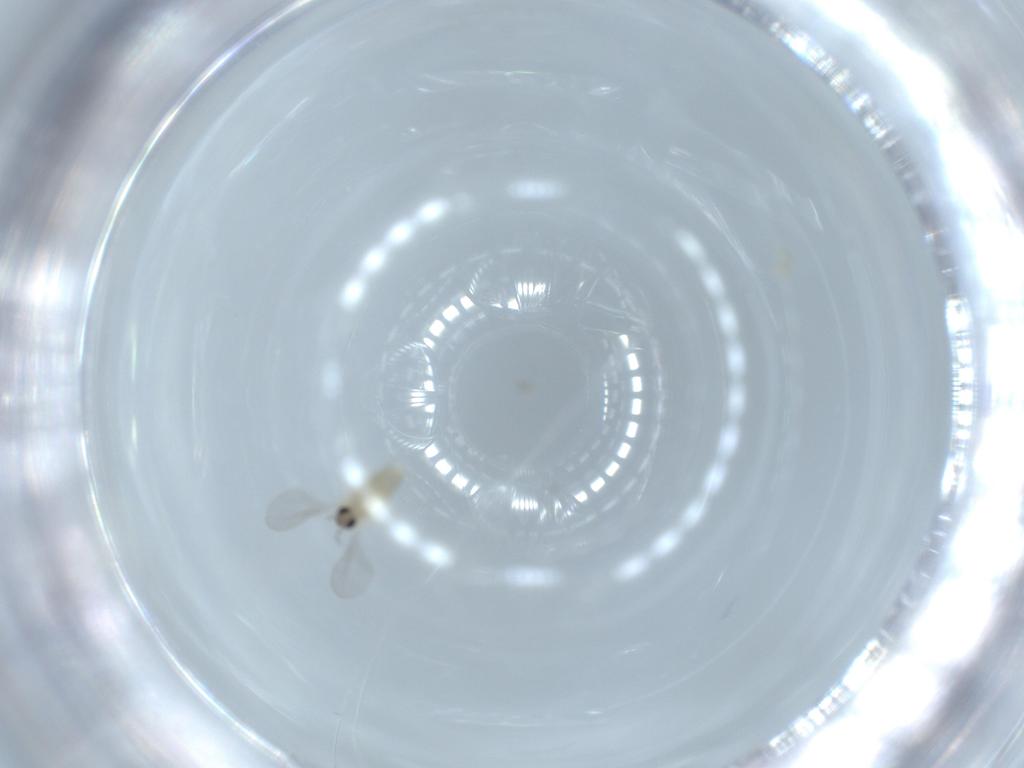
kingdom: Animalia
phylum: Arthropoda
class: Insecta
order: Diptera
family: Cecidomyiidae
